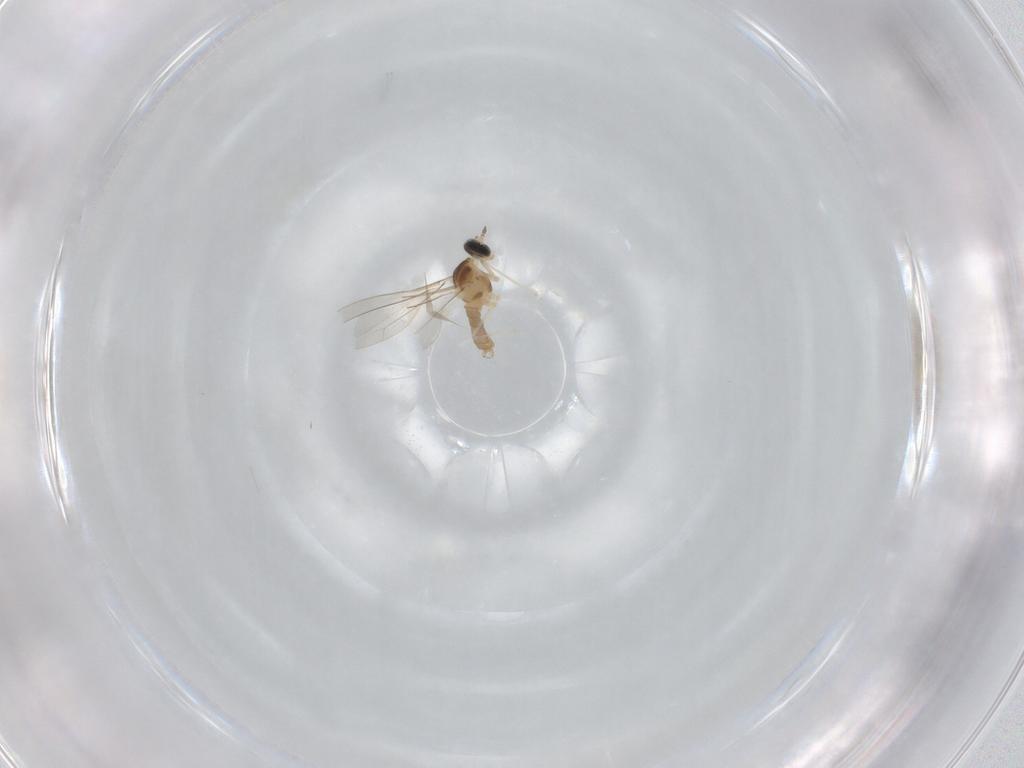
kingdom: Animalia
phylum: Arthropoda
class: Insecta
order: Diptera
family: Cecidomyiidae
